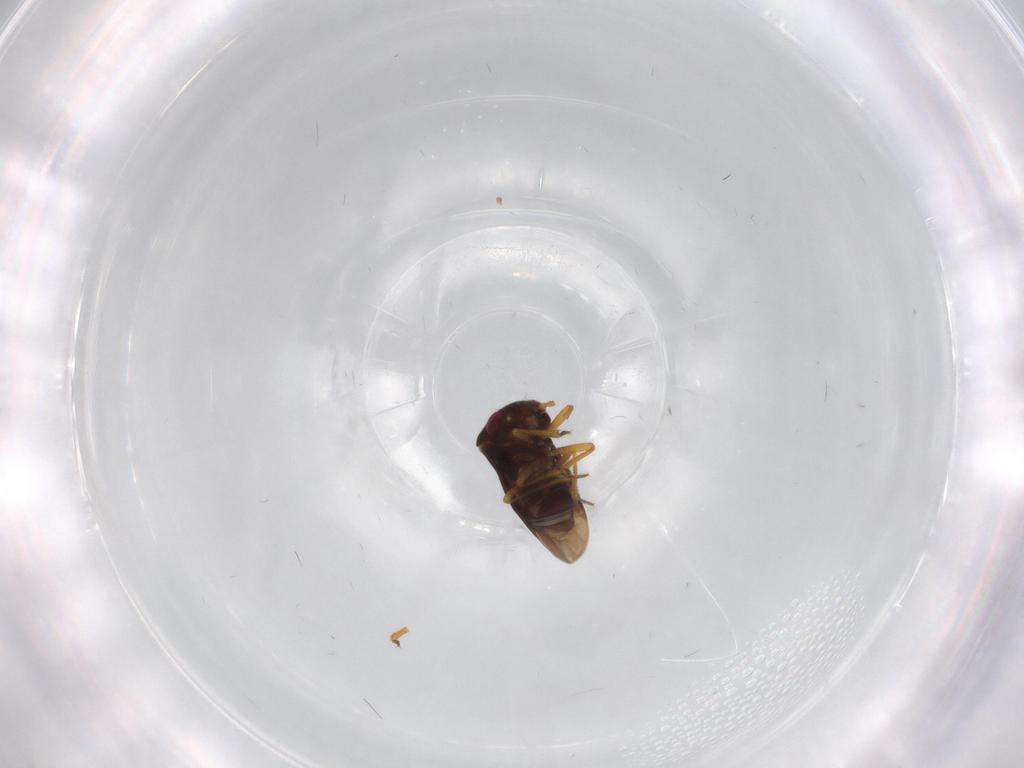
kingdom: Animalia
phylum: Arthropoda
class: Insecta
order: Hemiptera
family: Schizopteridae
